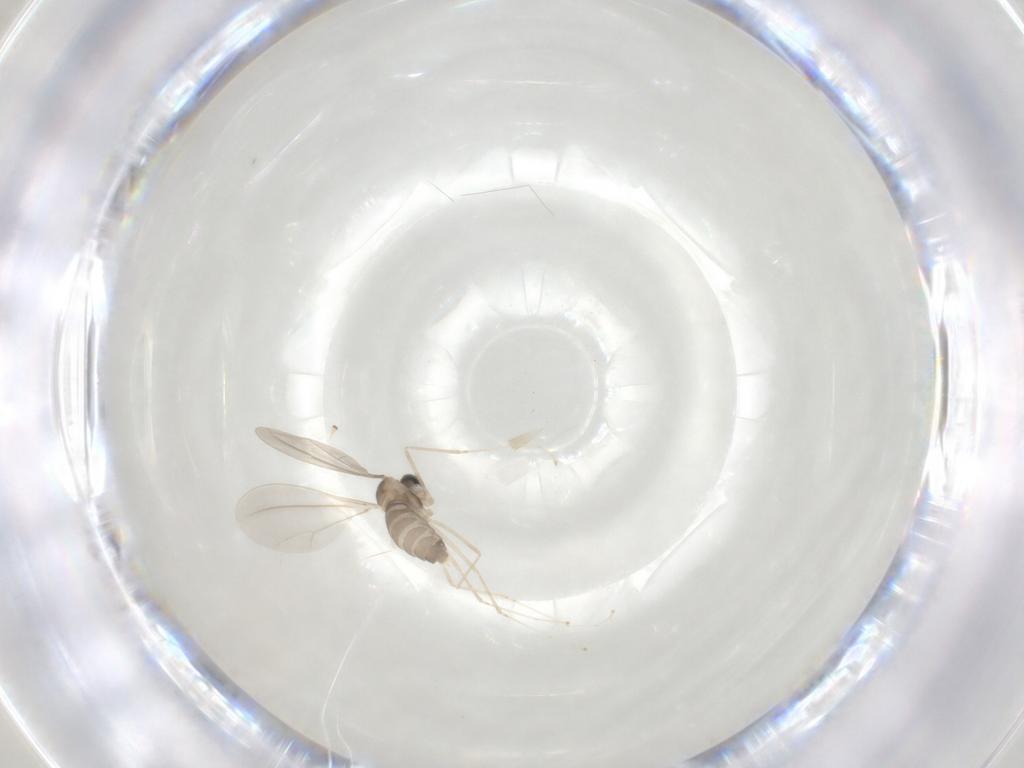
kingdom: Animalia
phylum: Arthropoda
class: Insecta
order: Diptera
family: Cecidomyiidae
